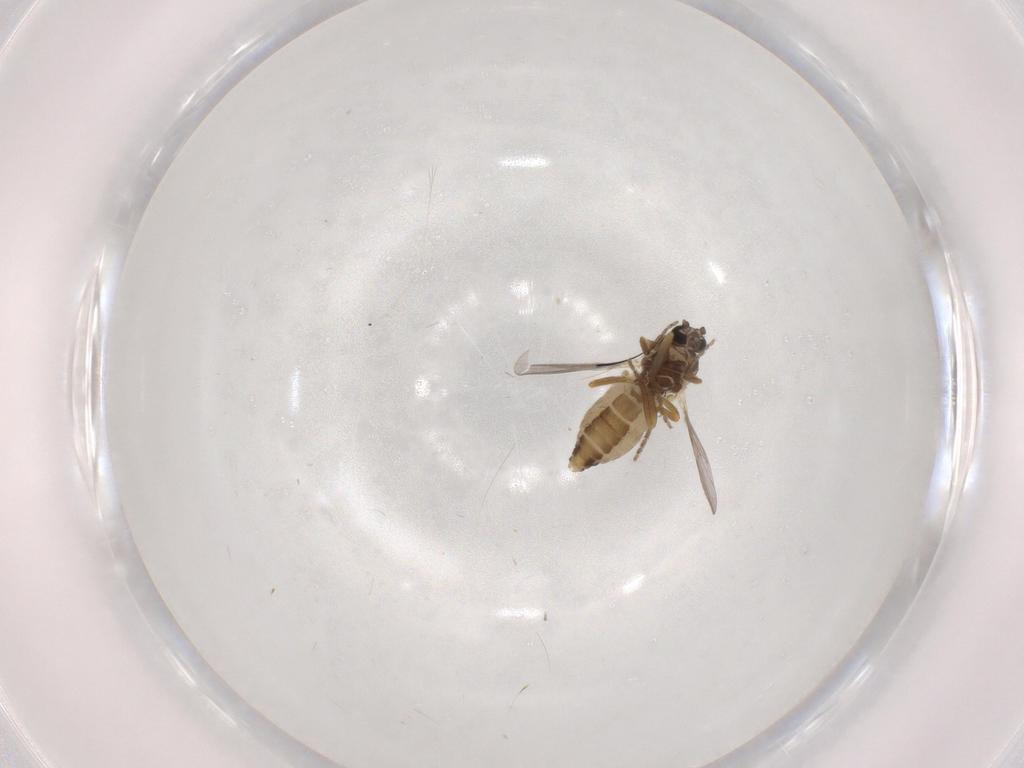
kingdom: Animalia
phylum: Arthropoda
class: Insecta
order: Diptera
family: Ceratopogonidae
